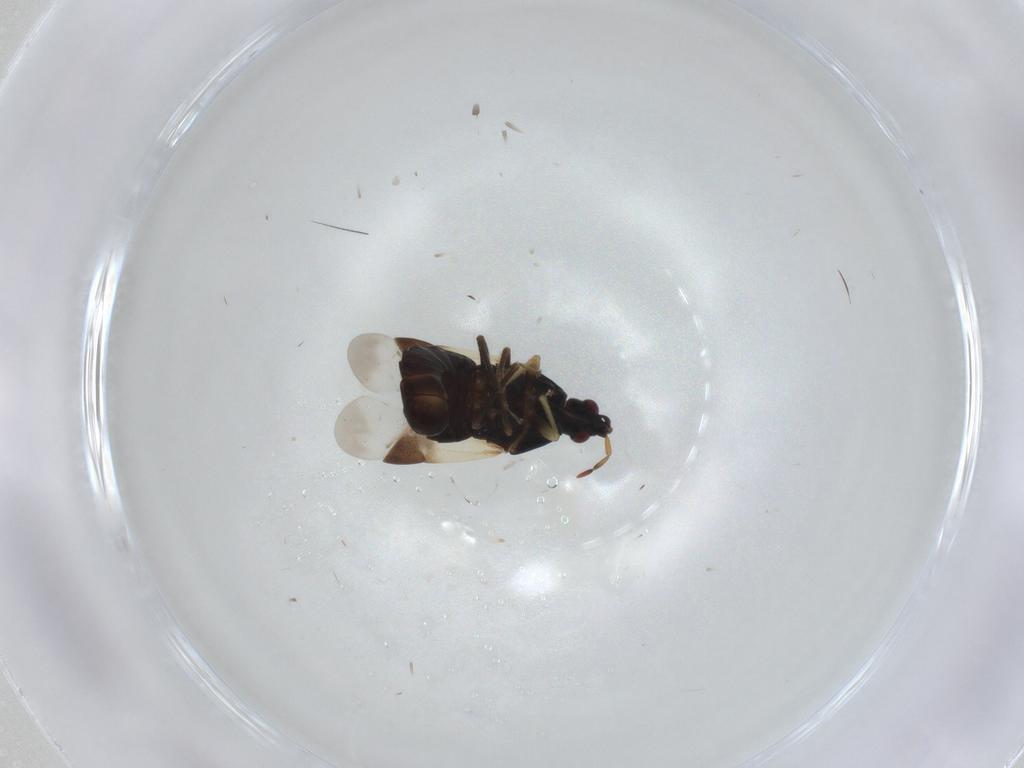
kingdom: Animalia
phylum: Arthropoda
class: Insecta
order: Hemiptera
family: Anthocoridae
